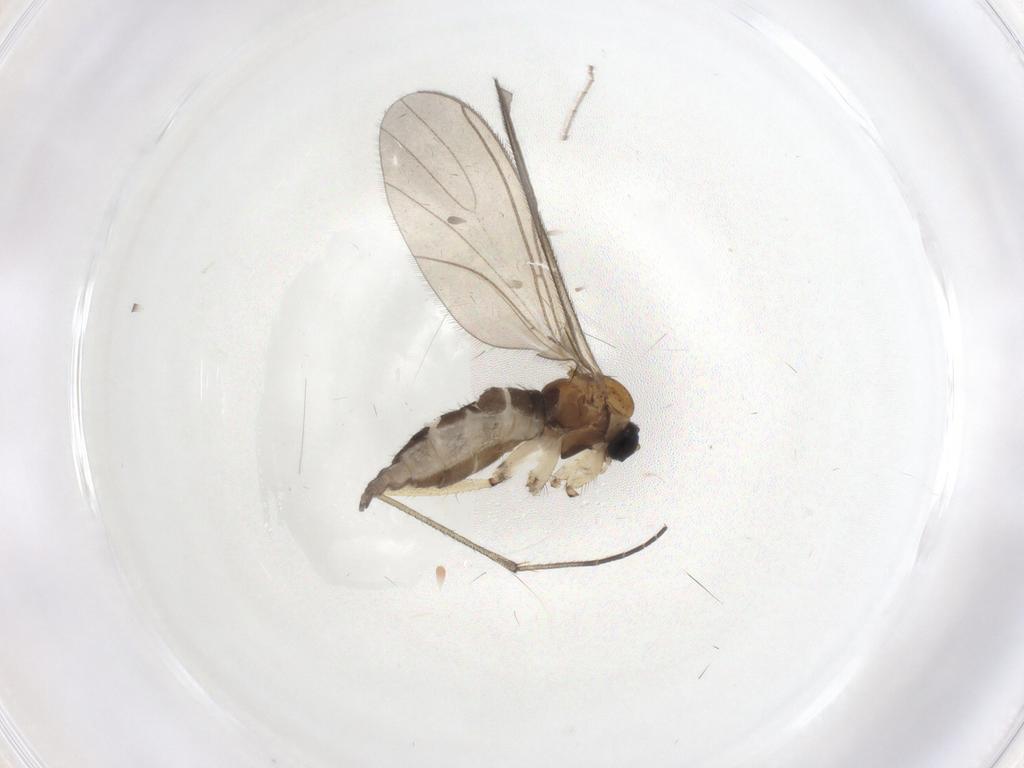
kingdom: Animalia
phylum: Arthropoda
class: Insecta
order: Diptera
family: Sciaridae
